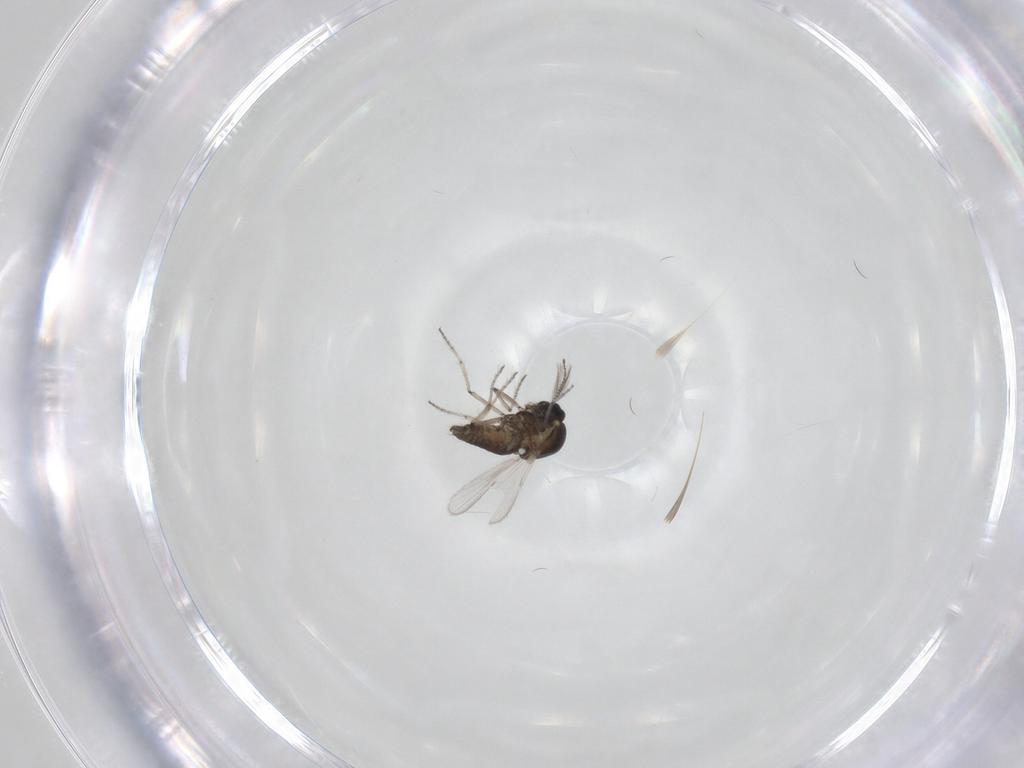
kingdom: Animalia
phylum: Arthropoda
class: Insecta
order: Diptera
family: Ceratopogonidae
